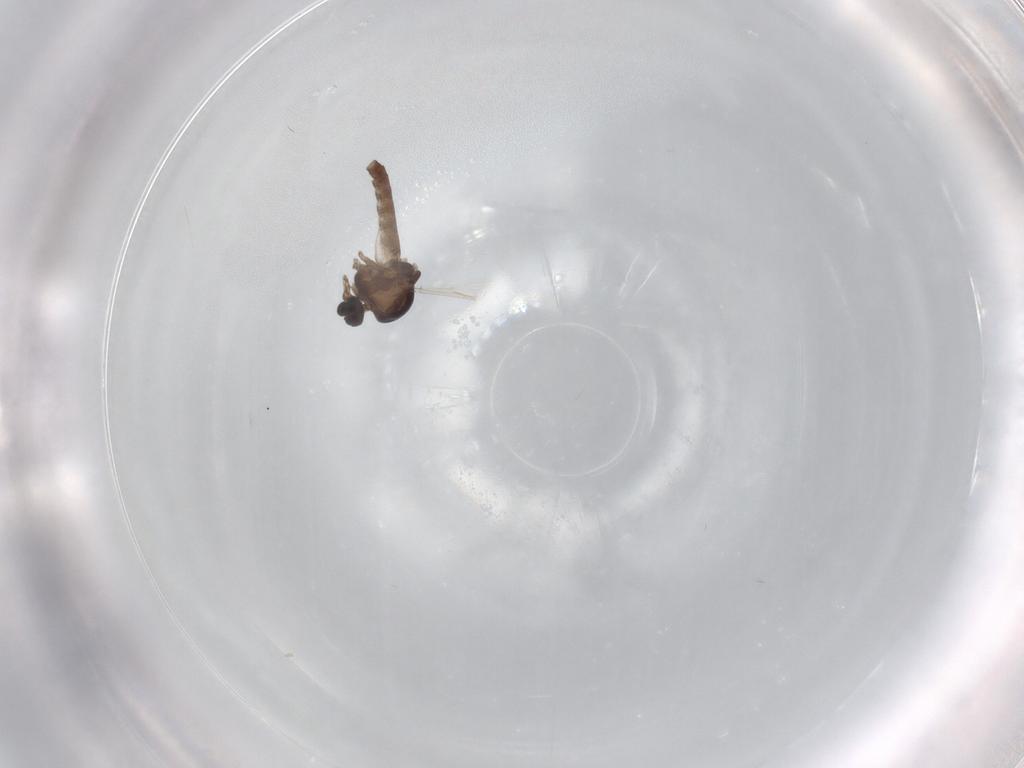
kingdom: Animalia
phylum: Arthropoda
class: Insecta
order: Diptera
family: Ceratopogonidae
